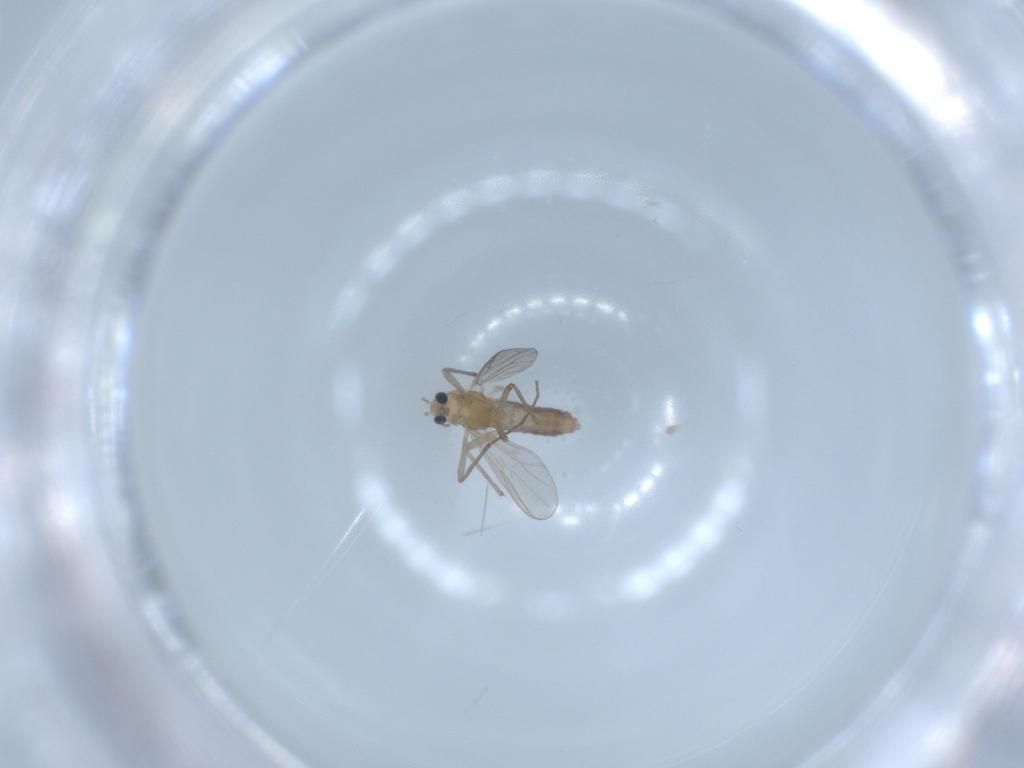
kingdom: Animalia
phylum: Arthropoda
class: Insecta
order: Diptera
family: Chironomidae
